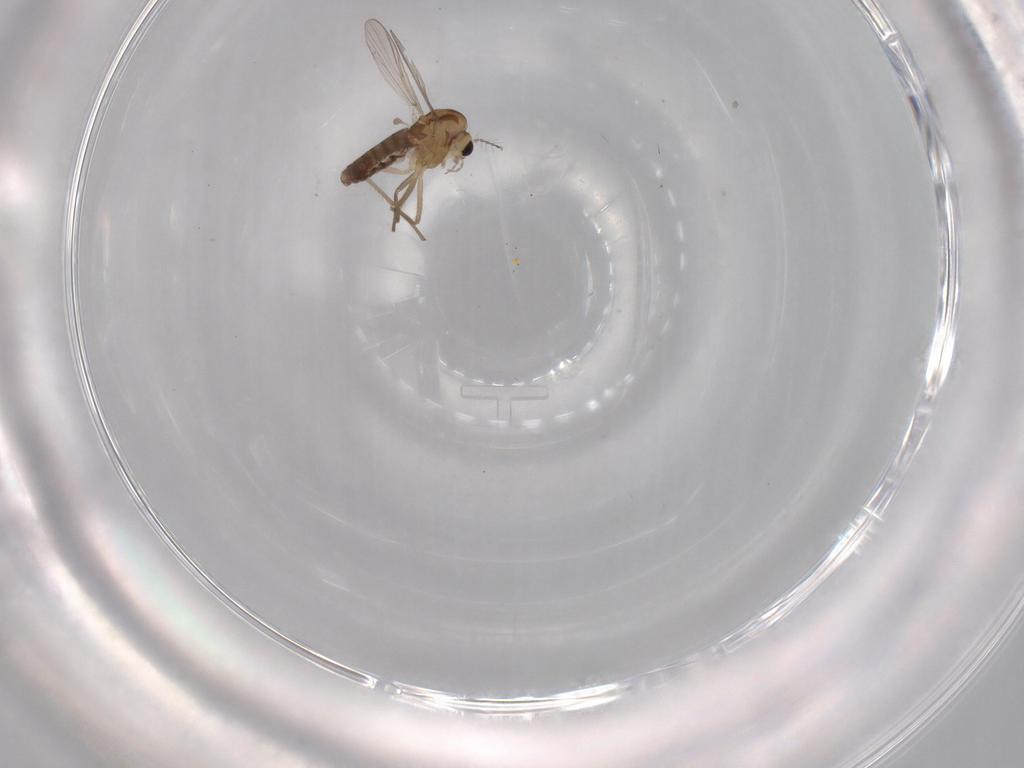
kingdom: Animalia
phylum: Arthropoda
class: Insecta
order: Diptera
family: Chironomidae
